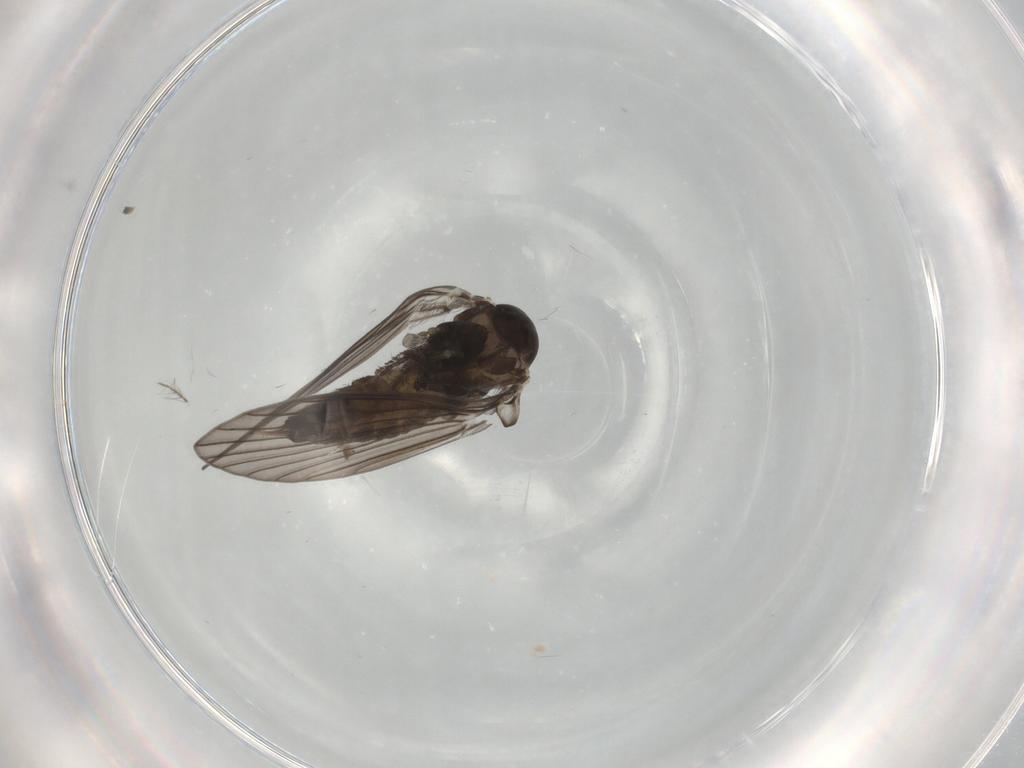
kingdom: Animalia
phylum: Arthropoda
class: Insecta
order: Diptera
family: Psychodidae
